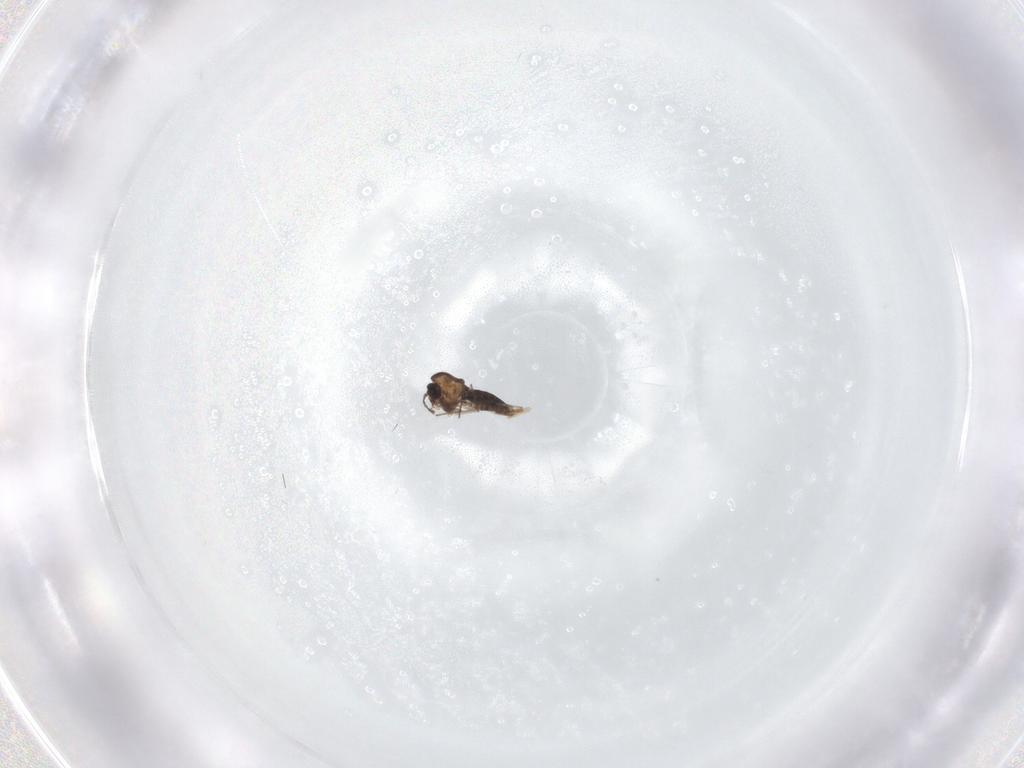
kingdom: Animalia
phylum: Arthropoda
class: Insecta
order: Diptera
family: Chironomidae
